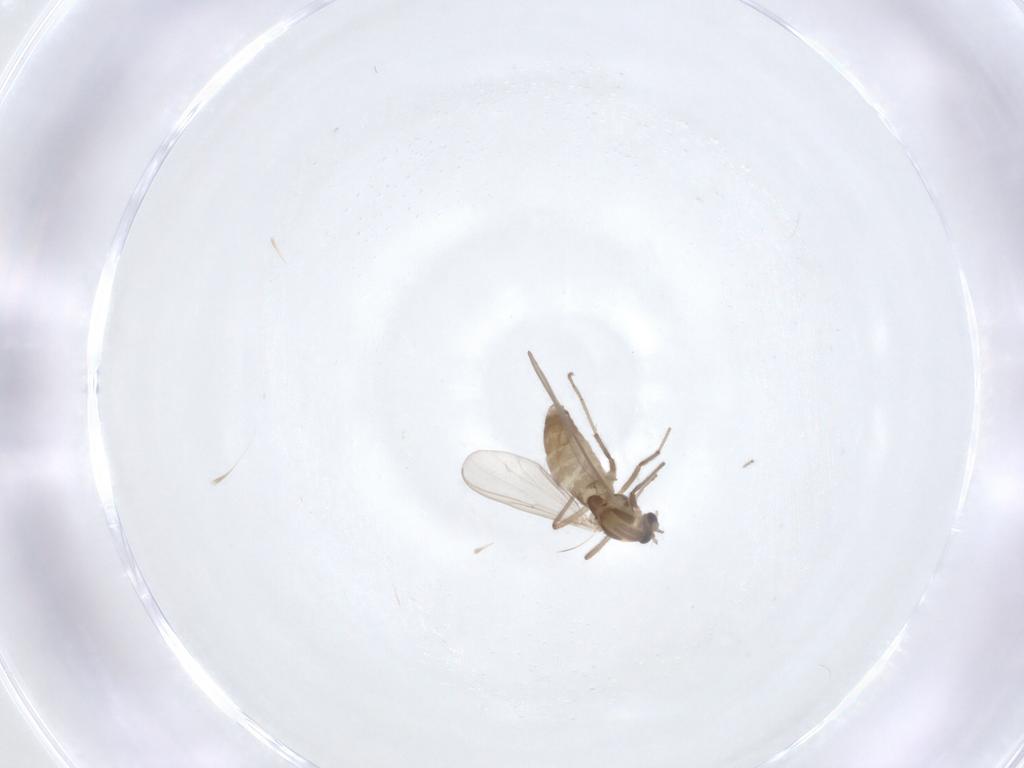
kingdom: Animalia
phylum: Arthropoda
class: Insecta
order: Diptera
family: Chironomidae
